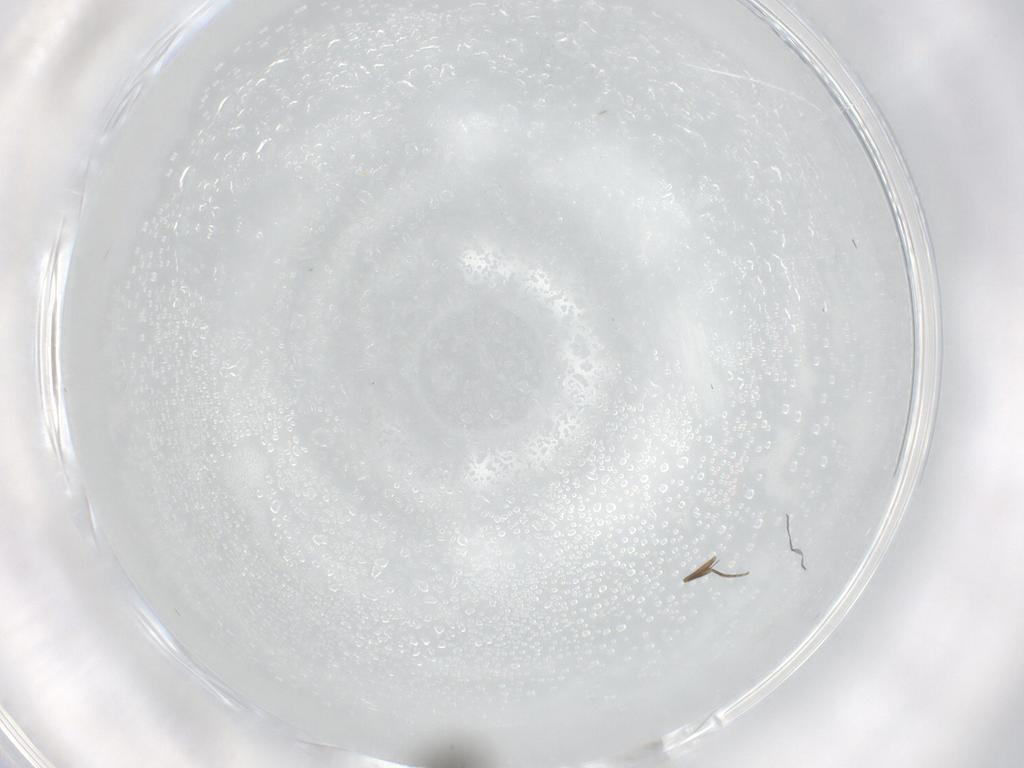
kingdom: Animalia
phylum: Arthropoda
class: Insecta
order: Diptera
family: Phoridae
